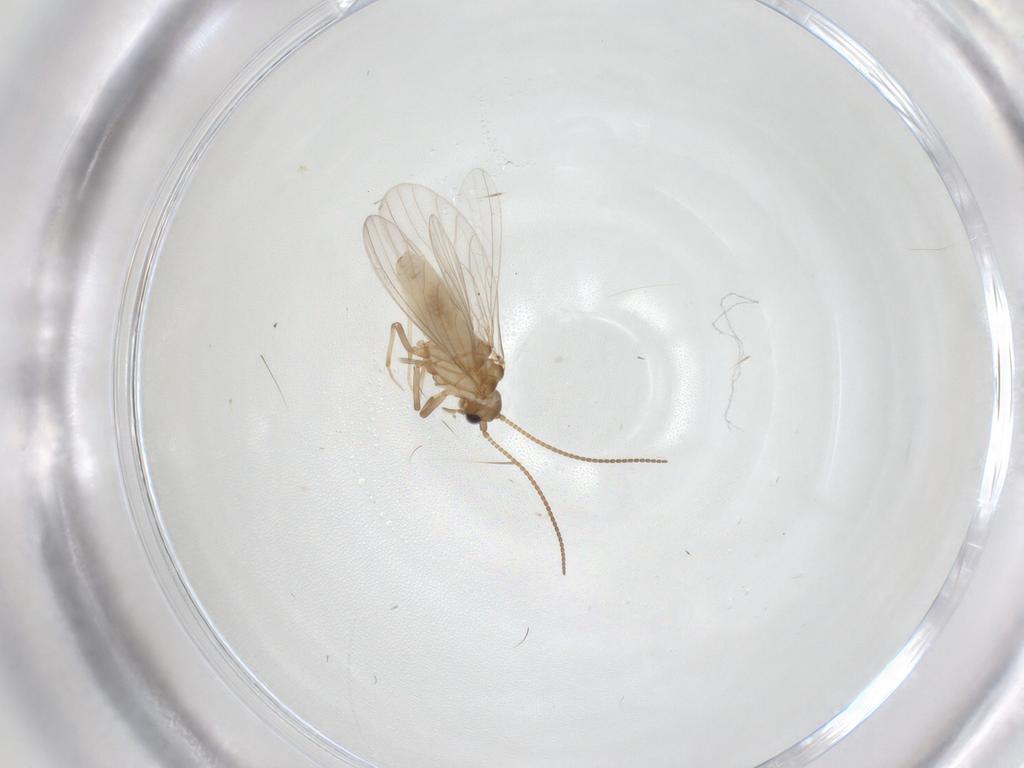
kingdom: Animalia
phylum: Arthropoda
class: Insecta
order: Neuroptera
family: Coniopterygidae
